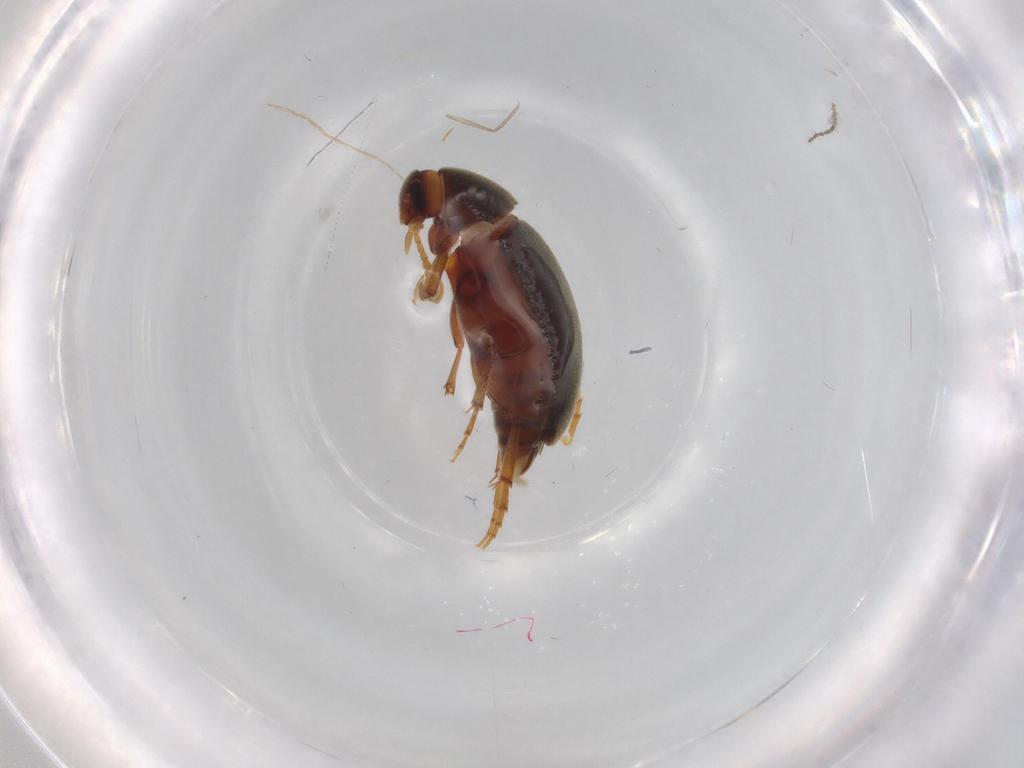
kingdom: Animalia
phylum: Arthropoda
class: Insecta
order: Coleoptera
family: Scraptiidae
